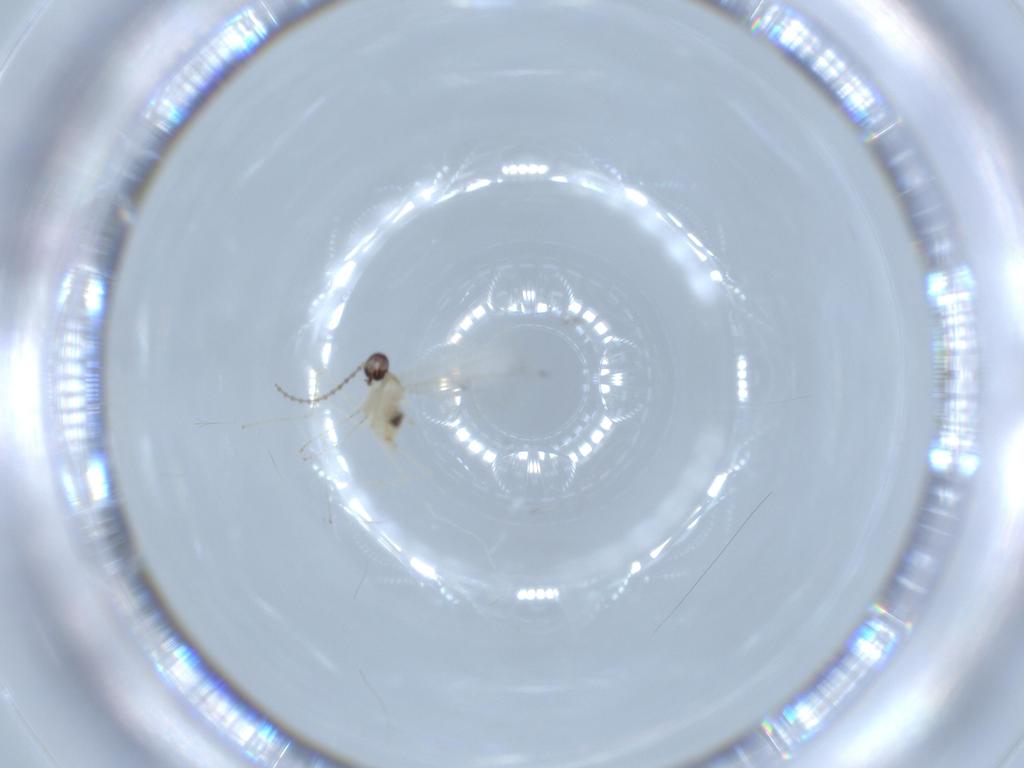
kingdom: Animalia
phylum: Arthropoda
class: Insecta
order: Diptera
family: Cecidomyiidae
